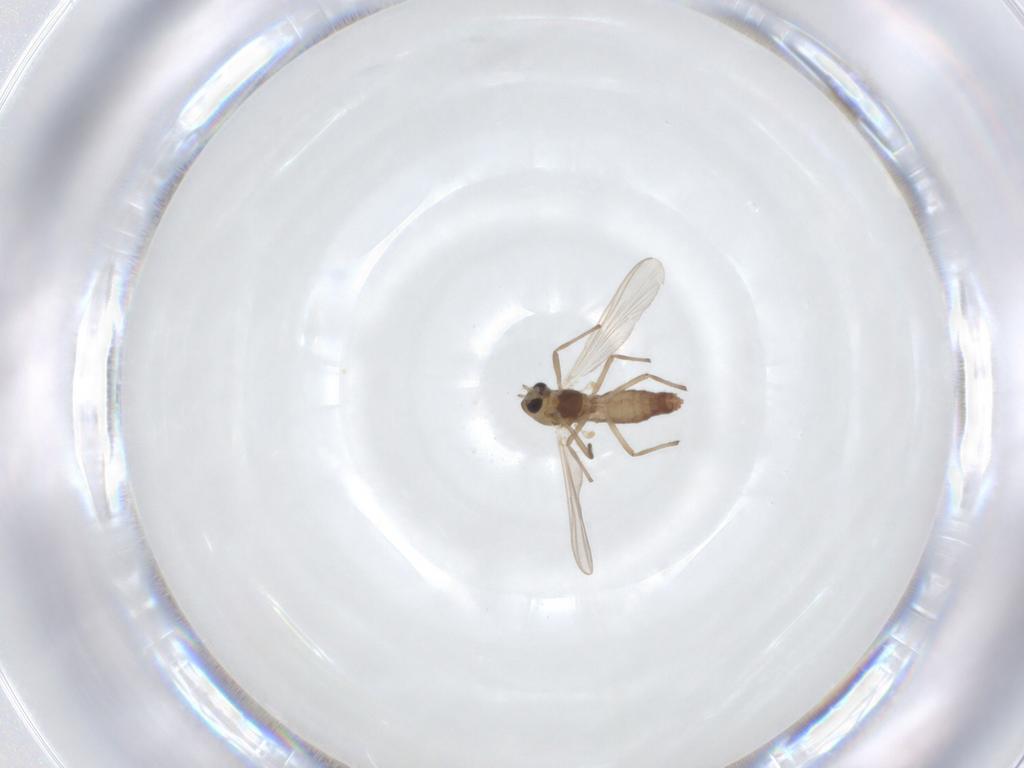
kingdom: Animalia
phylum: Arthropoda
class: Insecta
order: Diptera
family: Chironomidae
